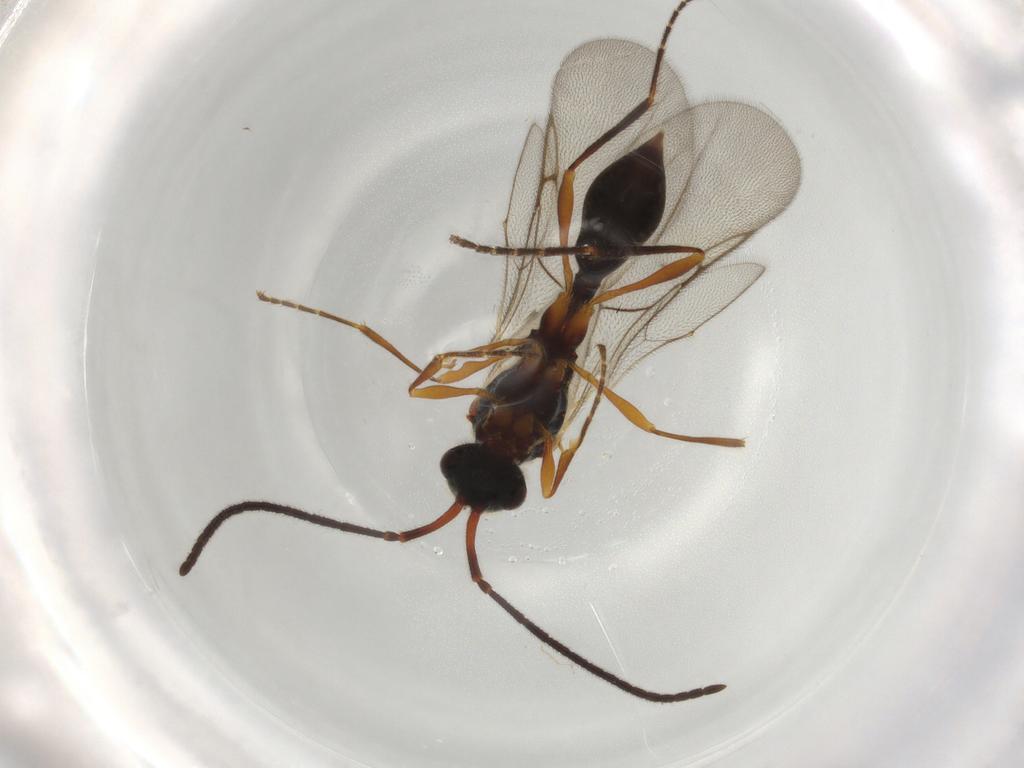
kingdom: Animalia
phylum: Arthropoda
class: Insecta
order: Hymenoptera
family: Diapriidae
